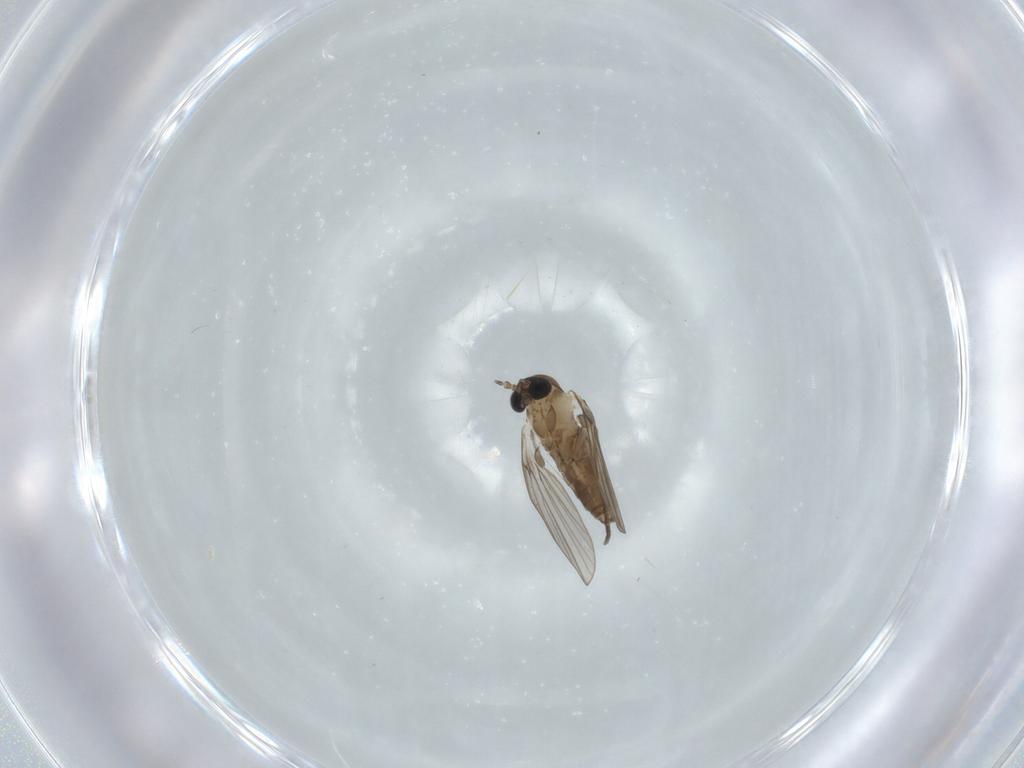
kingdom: Animalia
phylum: Arthropoda
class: Insecta
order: Diptera
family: Psychodidae
